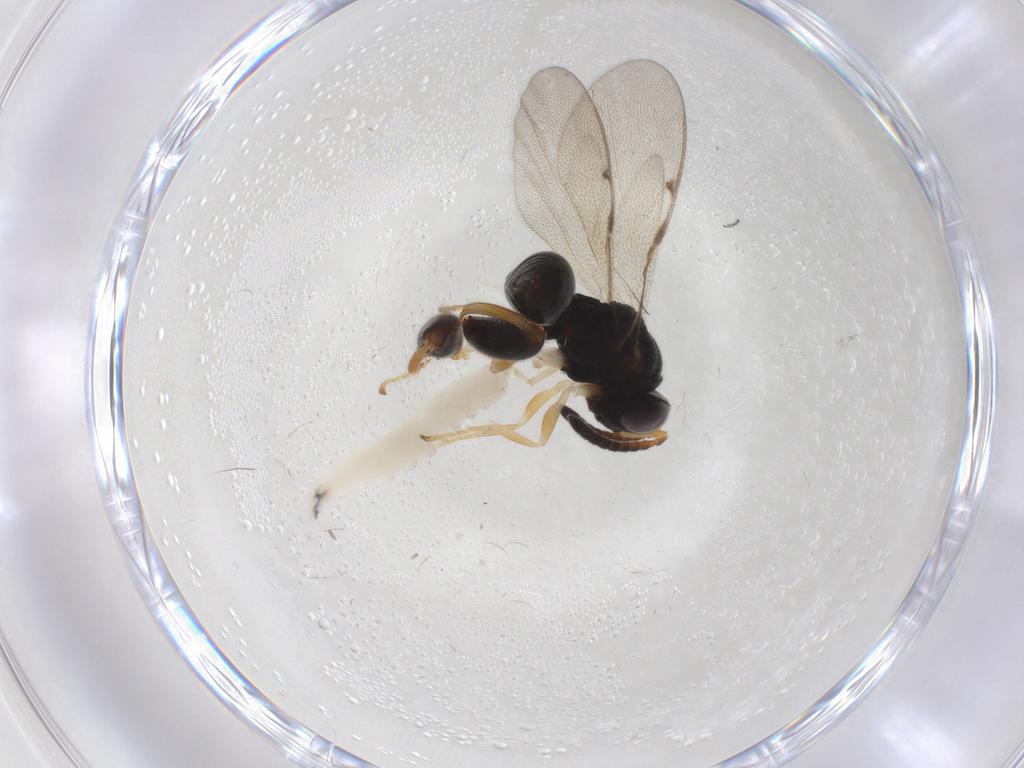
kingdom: Animalia
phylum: Arthropoda
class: Insecta
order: Hymenoptera
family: Chalcididae
